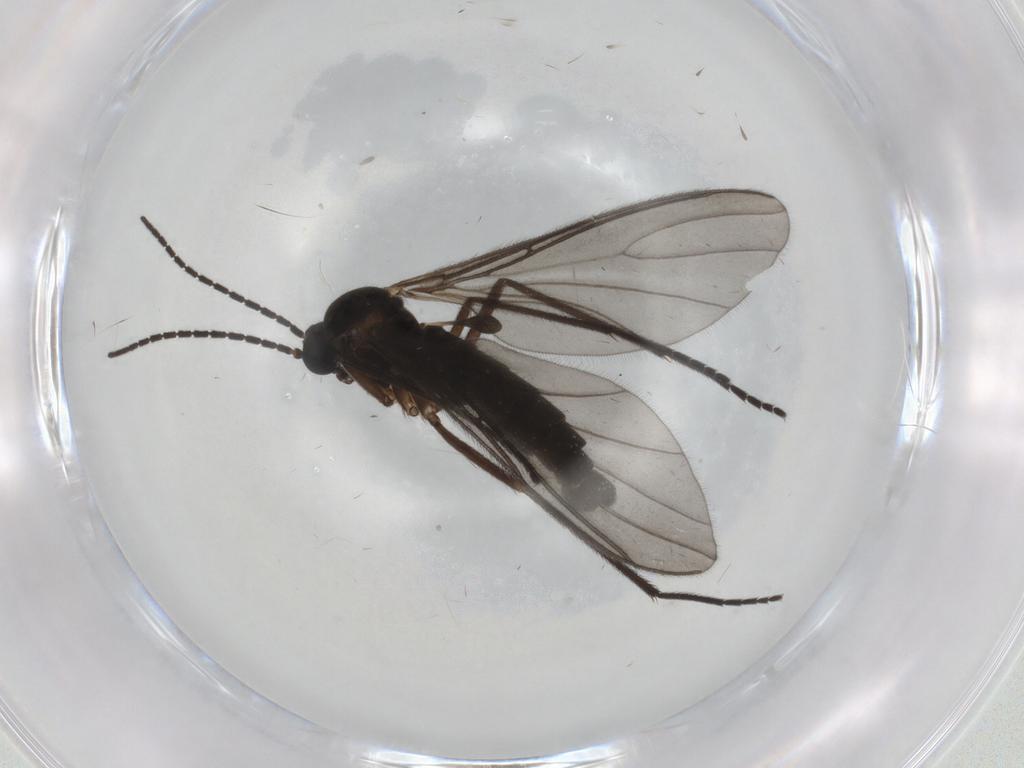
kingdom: Animalia
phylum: Arthropoda
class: Insecta
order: Diptera
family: Sciaridae
